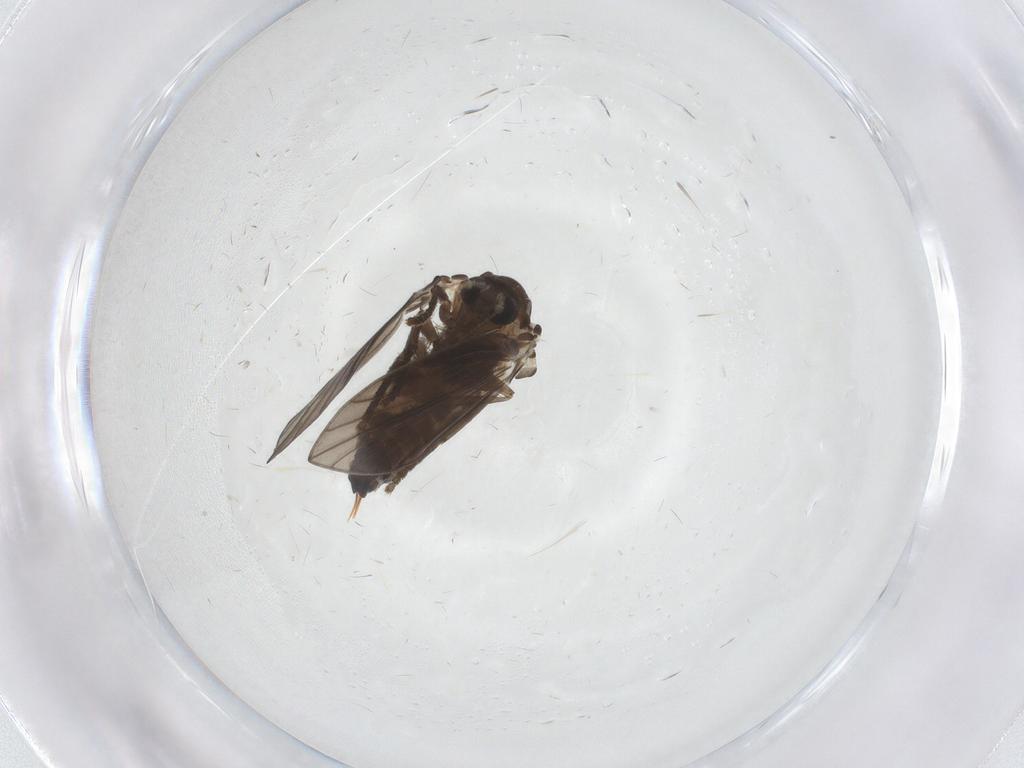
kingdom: Animalia
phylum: Arthropoda
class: Insecta
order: Diptera
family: Psychodidae
